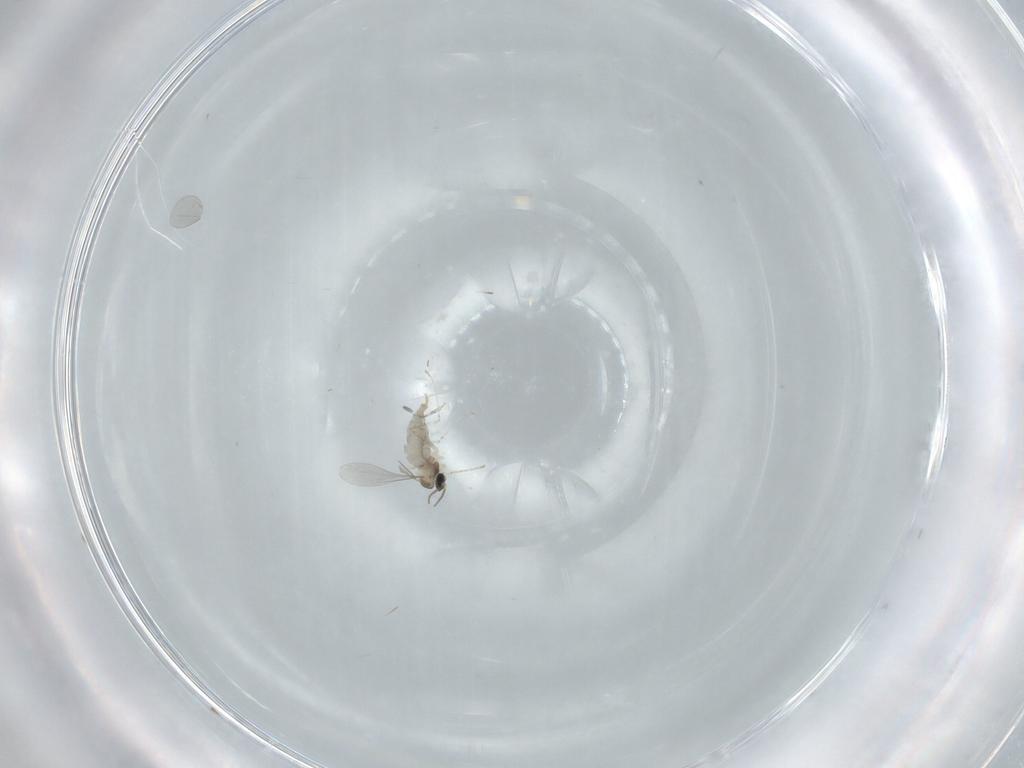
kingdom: Animalia
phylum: Arthropoda
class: Insecta
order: Diptera
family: Cecidomyiidae
